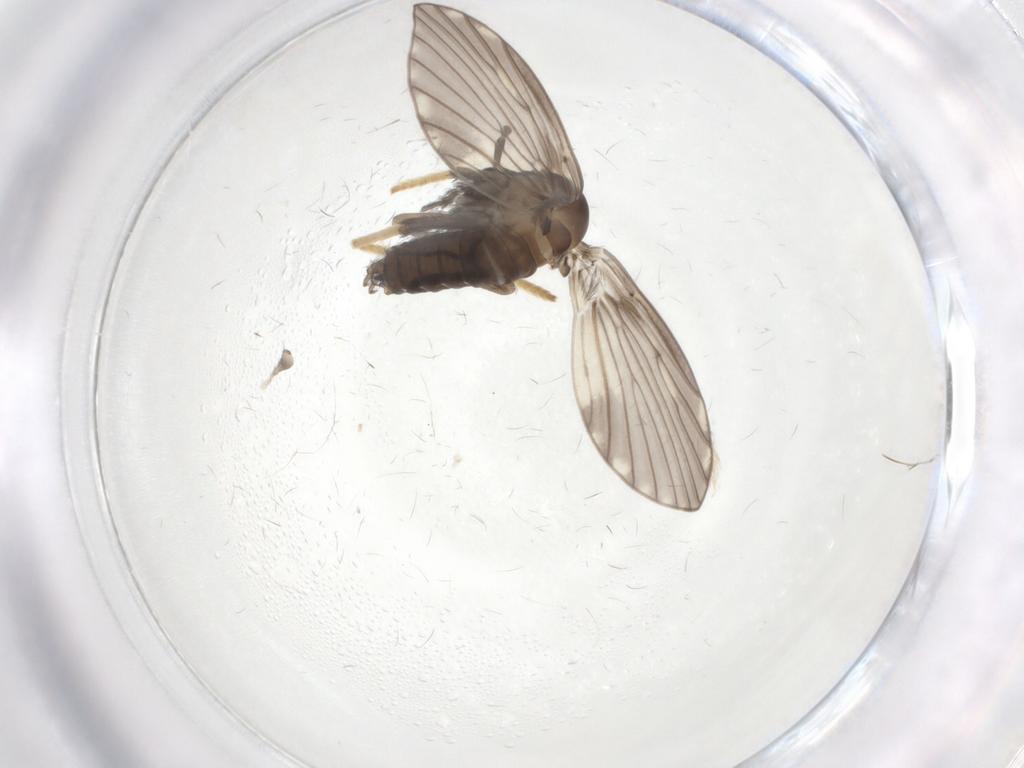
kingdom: Animalia
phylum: Arthropoda
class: Insecta
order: Diptera
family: Psychodidae
